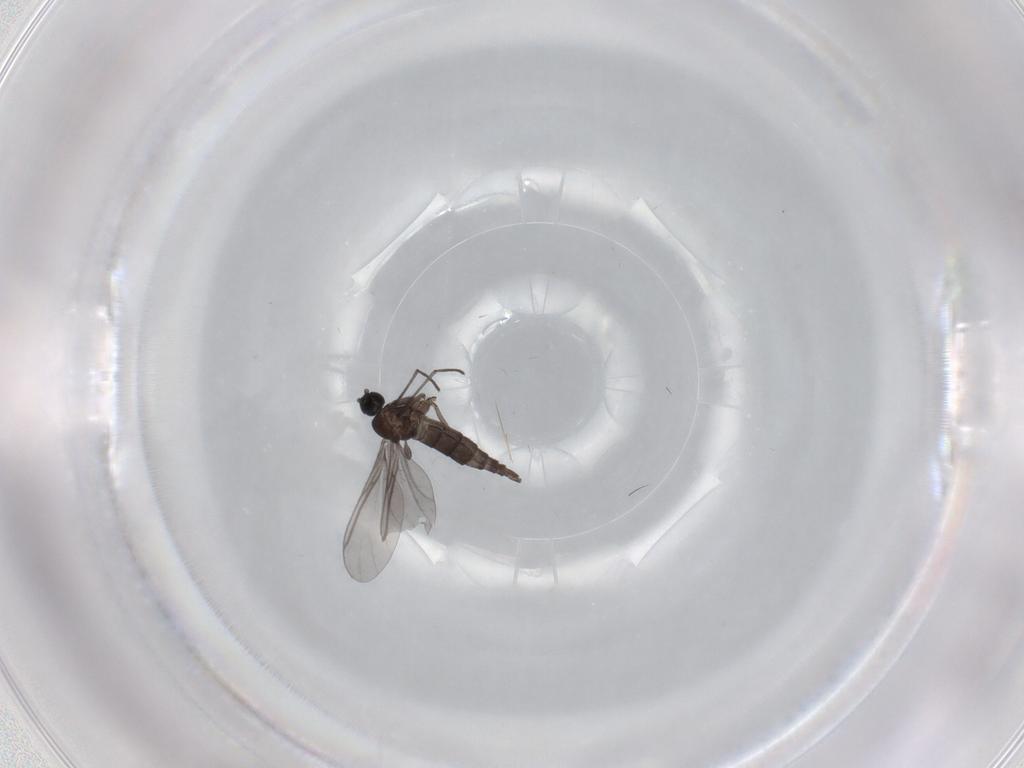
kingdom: Animalia
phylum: Arthropoda
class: Insecta
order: Diptera
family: Sciaridae
